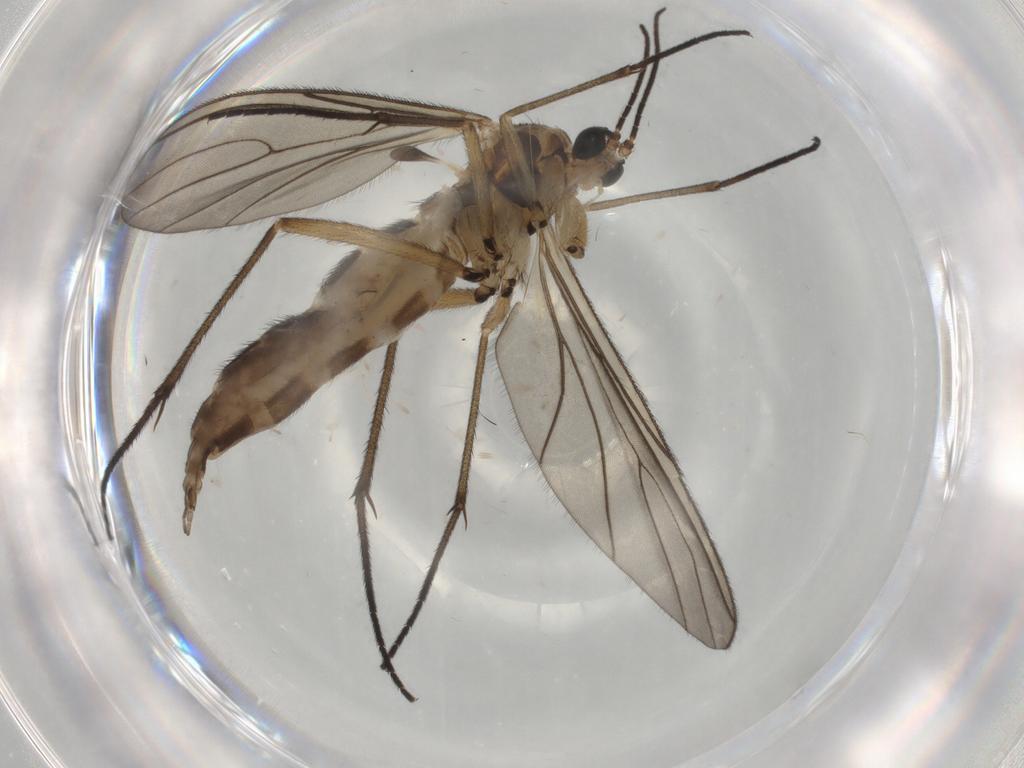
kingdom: Animalia
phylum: Arthropoda
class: Insecta
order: Diptera
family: Sciaridae
